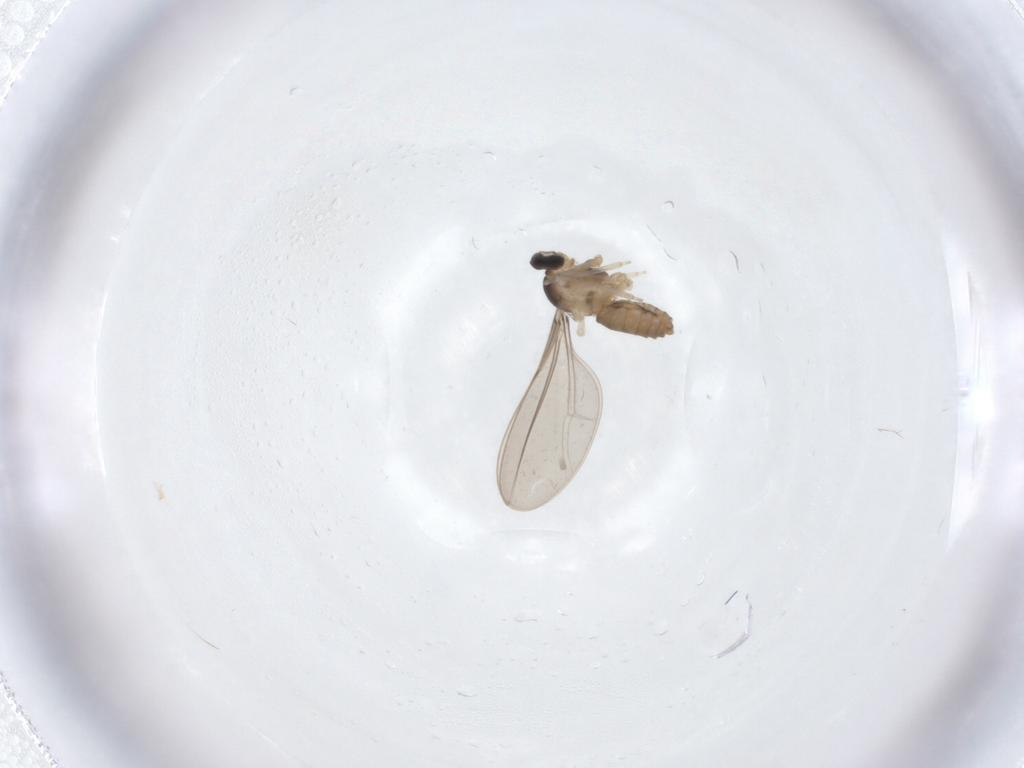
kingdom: Animalia
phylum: Arthropoda
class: Insecta
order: Diptera
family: Cecidomyiidae
